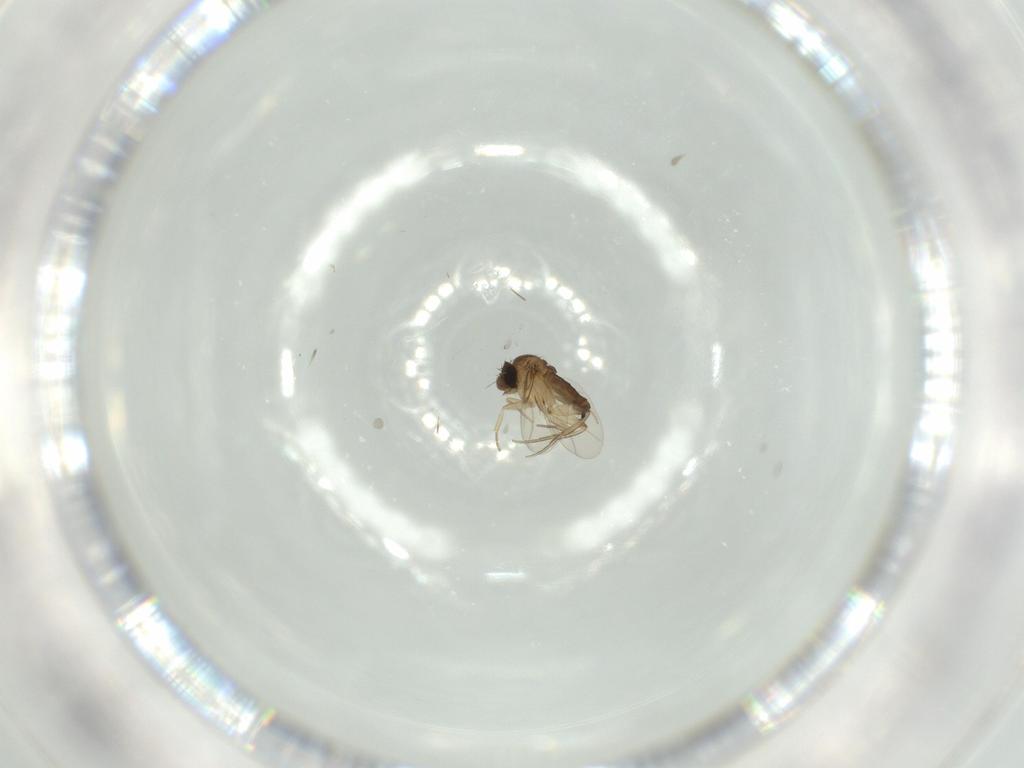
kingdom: Animalia
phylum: Arthropoda
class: Insecta
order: Diptera
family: Phoridae
